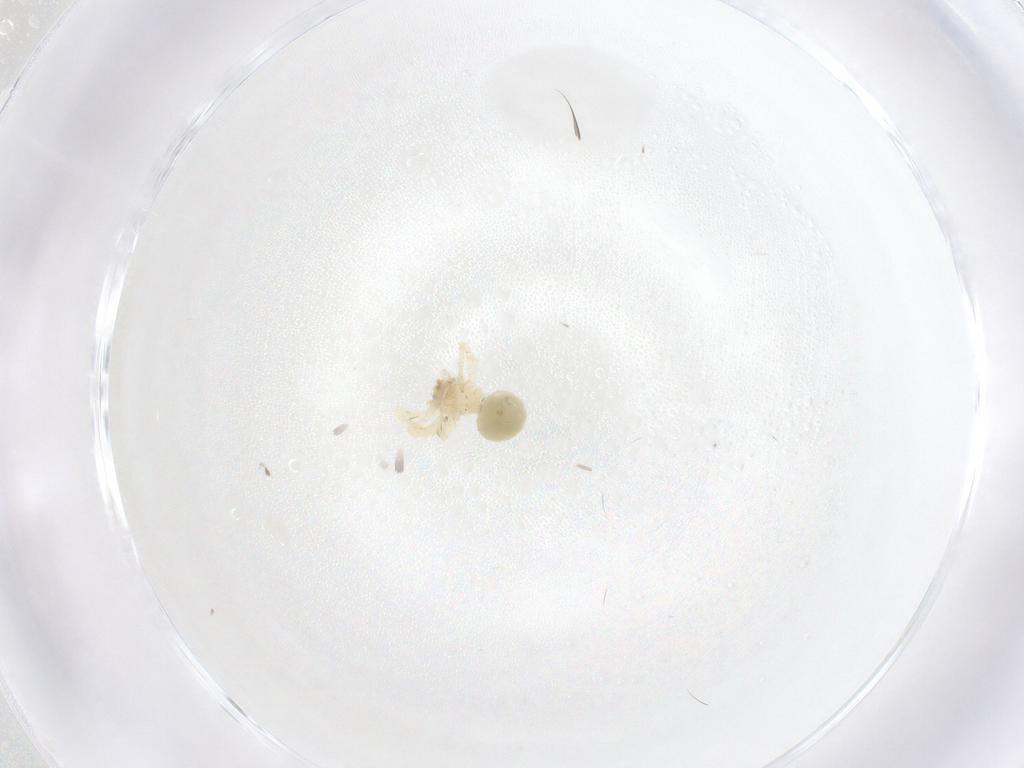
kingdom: Animalia
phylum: Arthropoda
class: Arachnida
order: Araneae
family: Oonopidae
